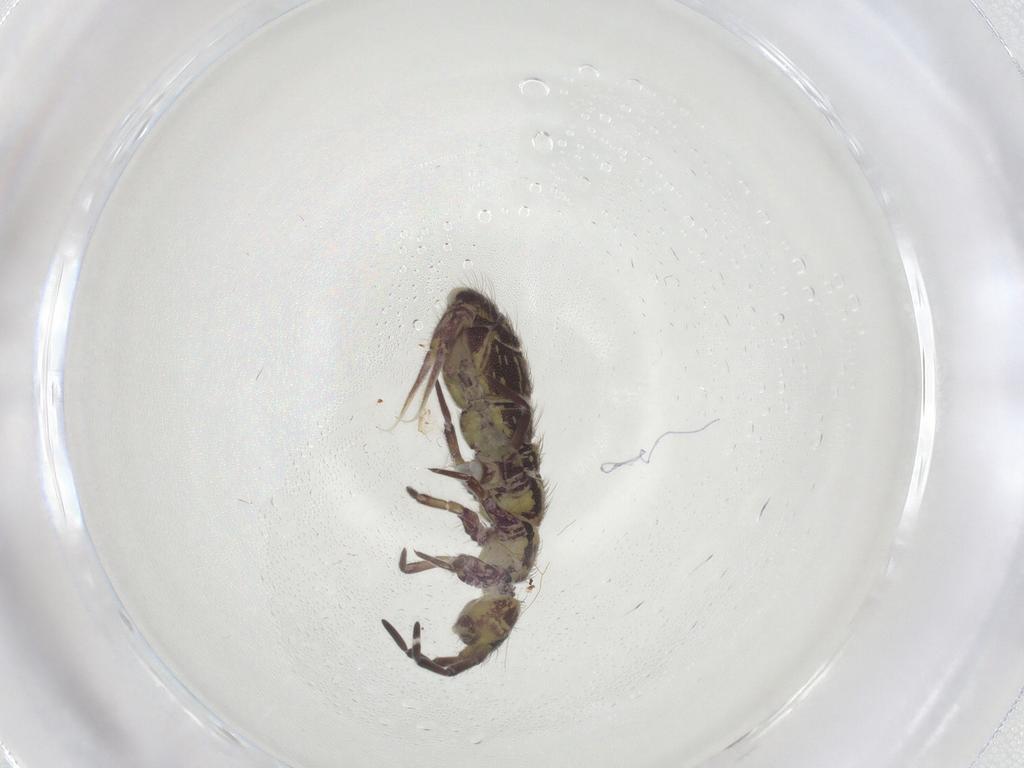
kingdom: Animalia
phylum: Arthropoda
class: Collembola
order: Entomobryomorpha
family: Isotomidae
